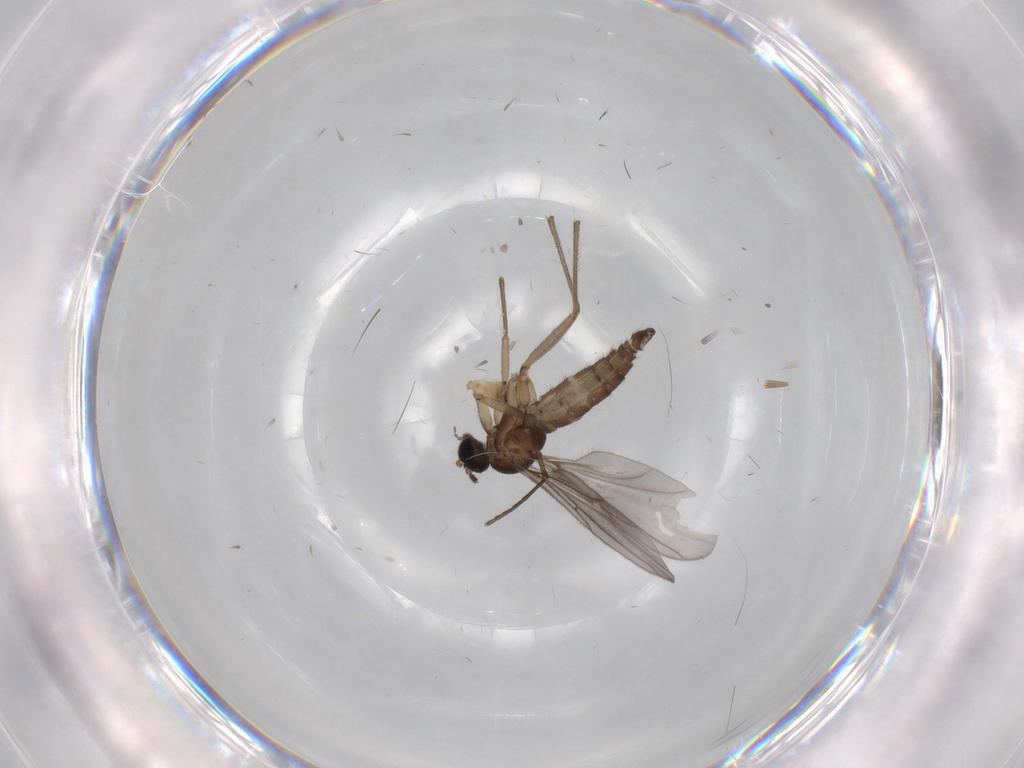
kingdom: Animalia
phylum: Arthropoda
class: Insecta
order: Diptera
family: Sciaridae
